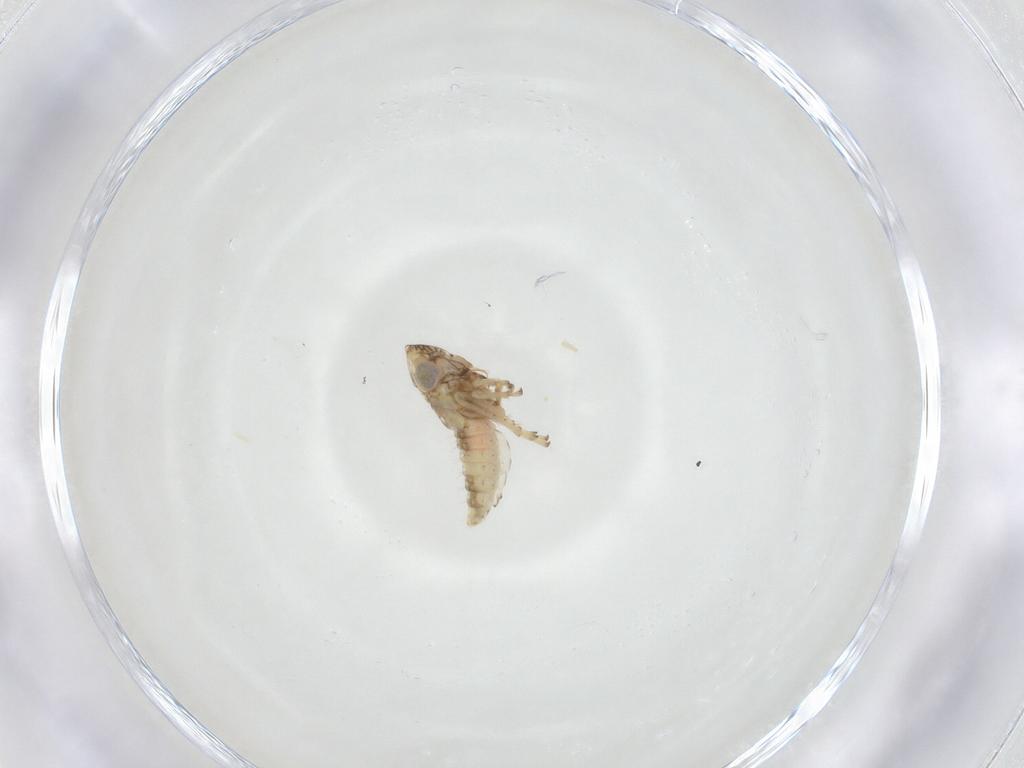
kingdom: Animalia
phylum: Arthropoda
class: Insecta
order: Hemiptera
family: Cicadellidae
